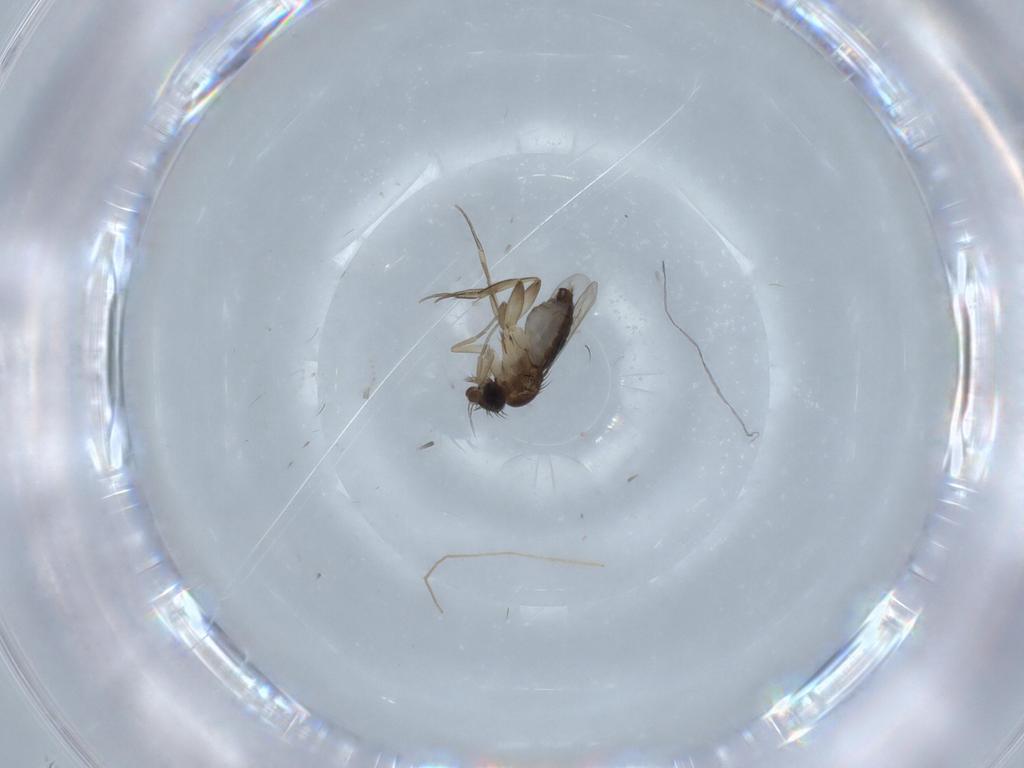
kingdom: Animalia
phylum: Arthropoda
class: Insecta
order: Diptera
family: Phoridae
